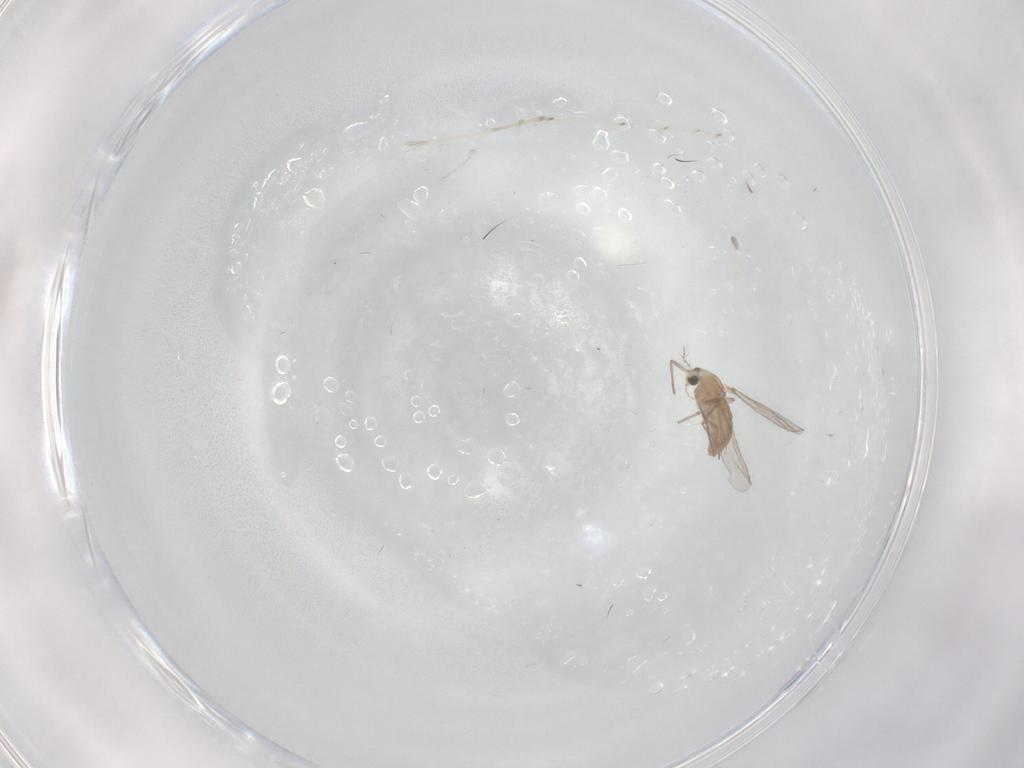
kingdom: Animalia
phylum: Arthropoda
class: Insecta
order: Diptera
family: Chironomidae
